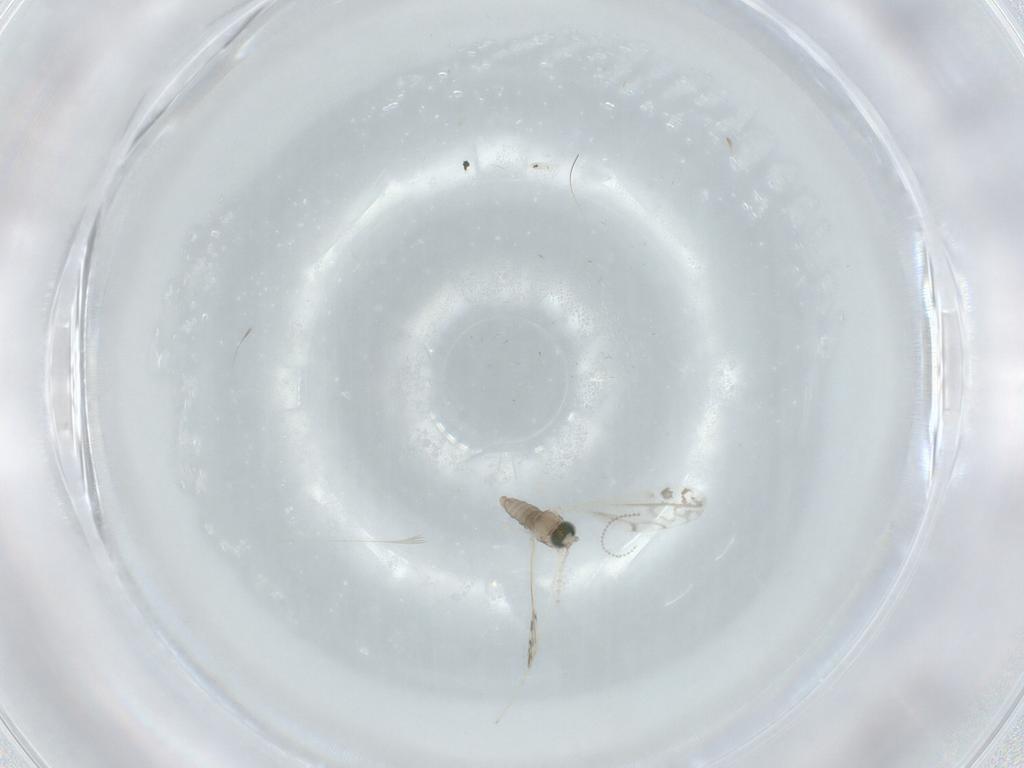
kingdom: Animalia
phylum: Arthropoda
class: Insecta
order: Diptera
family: Cecidomyiidae
